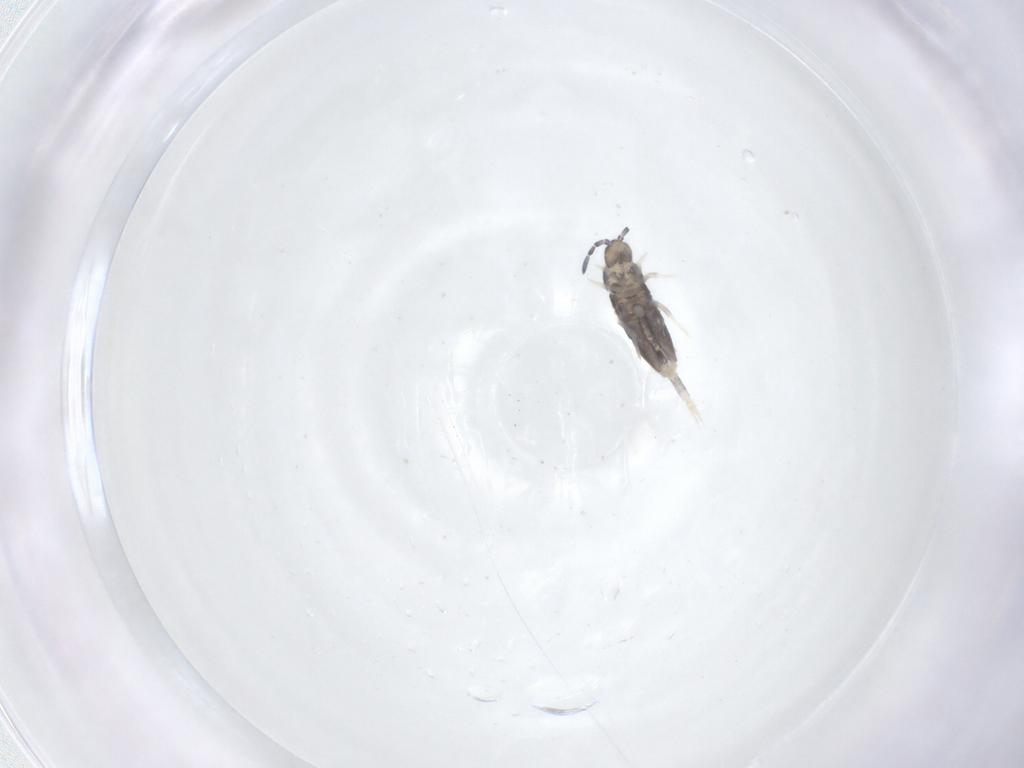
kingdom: Animalia
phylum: Arthropoda
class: Collembola
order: Entomobryomorpha
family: Entomobryidae
